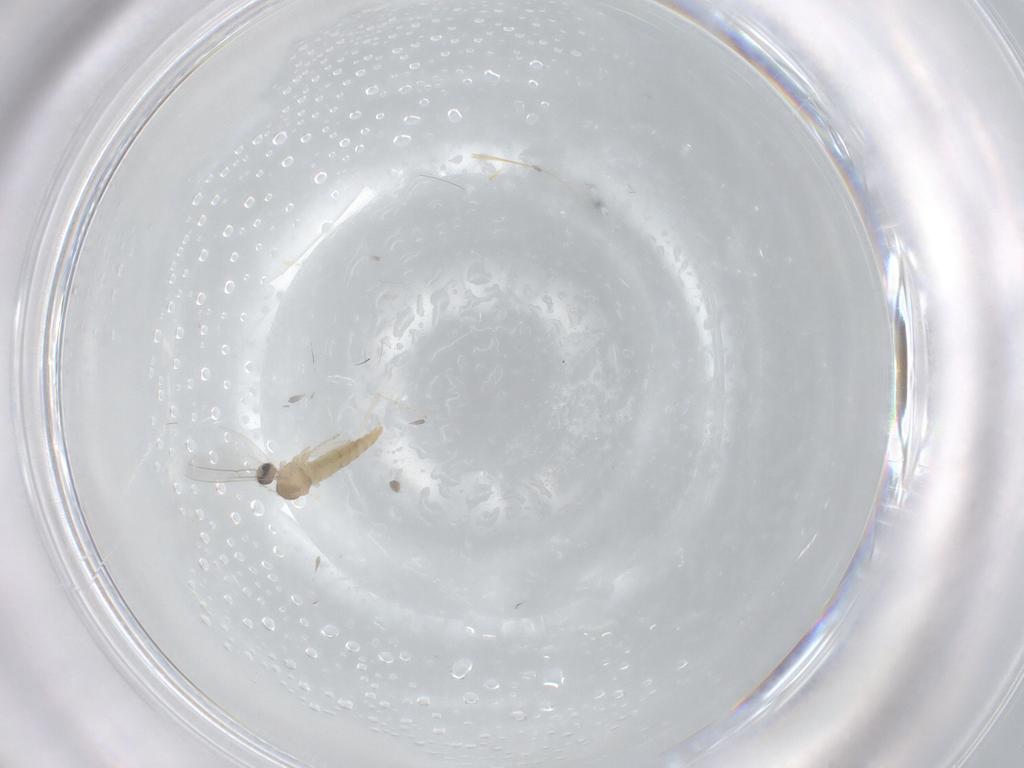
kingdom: Animalia
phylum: Arthropoda
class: Insecta
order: Diptera
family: Cecidomyiidae
